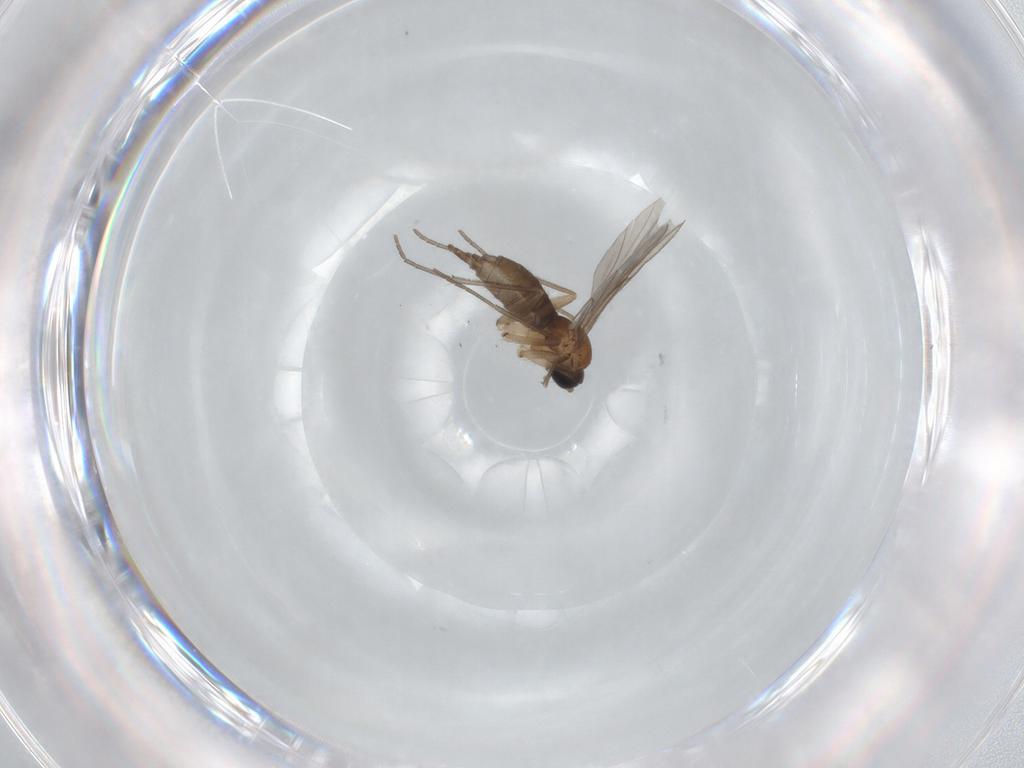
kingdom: Animalia
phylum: Arthropoda
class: Insecta
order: Diptera
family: Sciaridae
